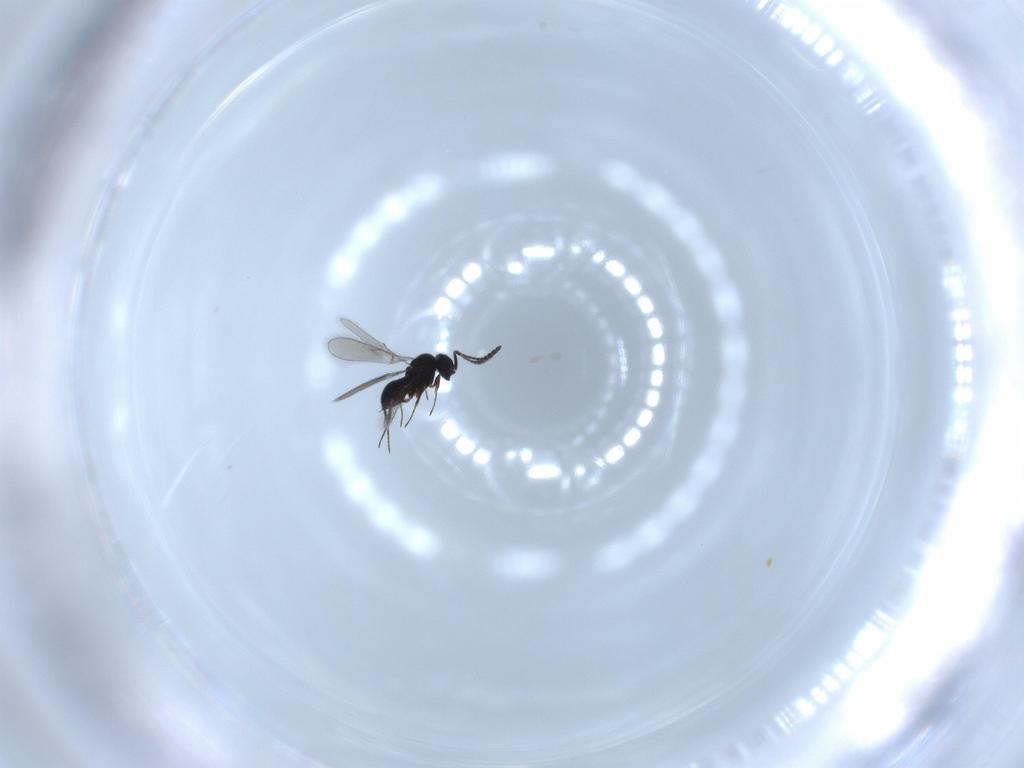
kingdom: Animalia
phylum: Arthropoda
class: Insecta
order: Hymenoptera
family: Scelionidae
